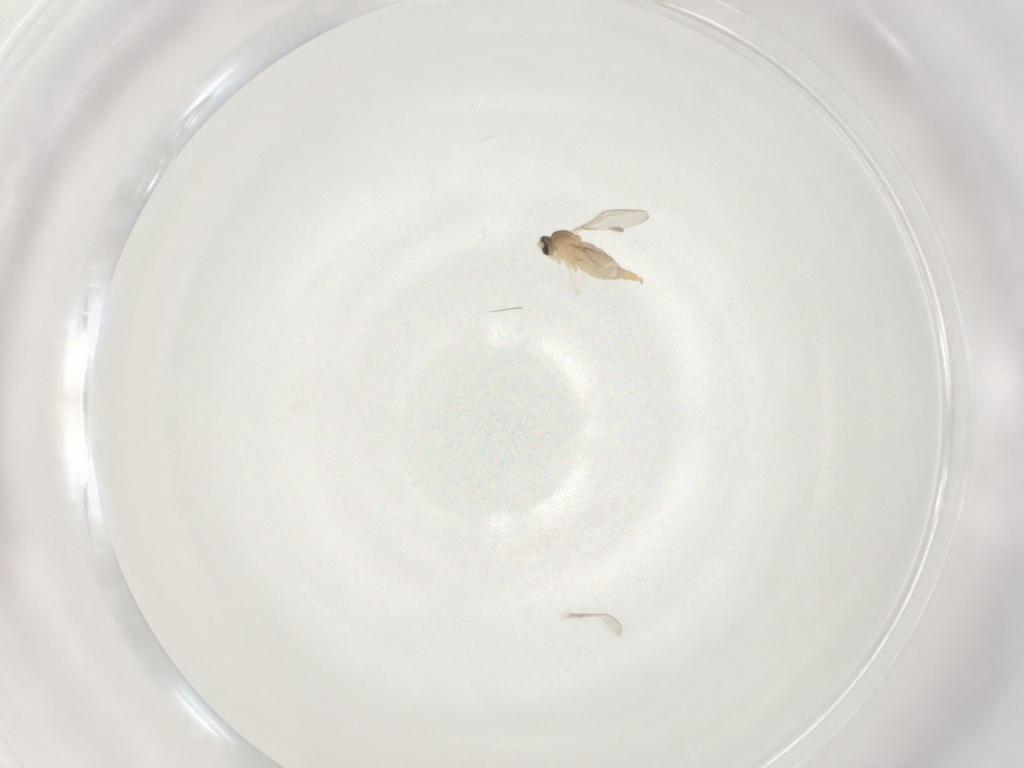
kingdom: Animalia
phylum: Arthropoda
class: Insecta
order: Diptera
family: Cecidomyiidae
